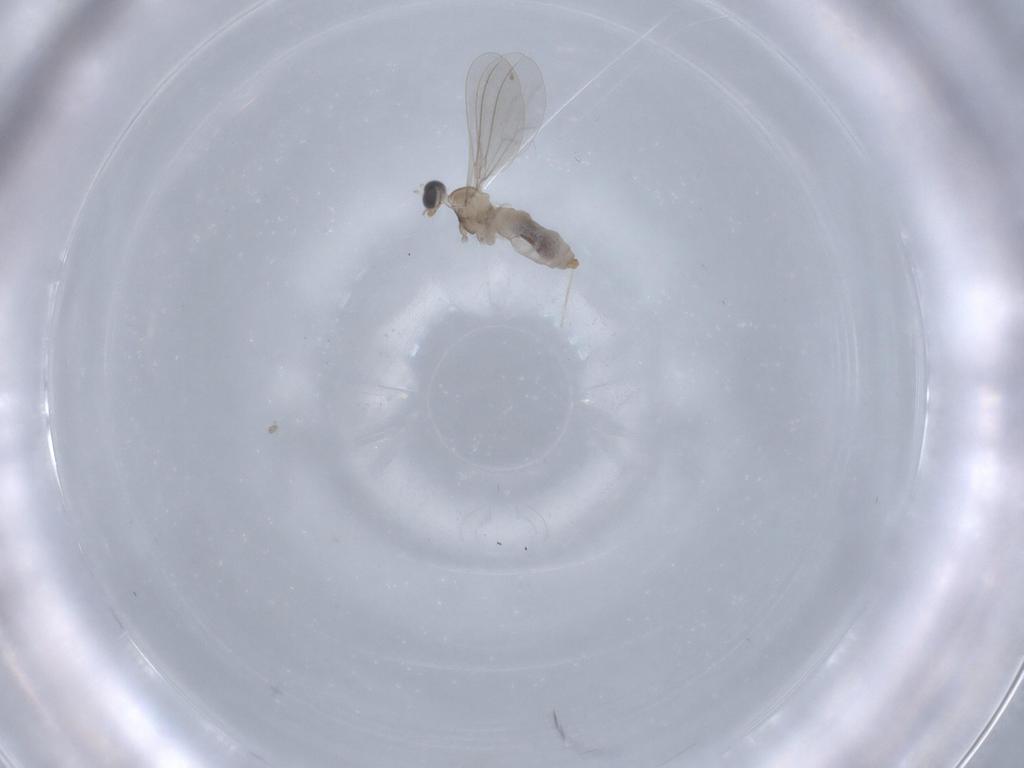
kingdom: Animalia
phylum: Arthropoda
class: Insecta
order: Diptera
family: Cecidomyiidae
